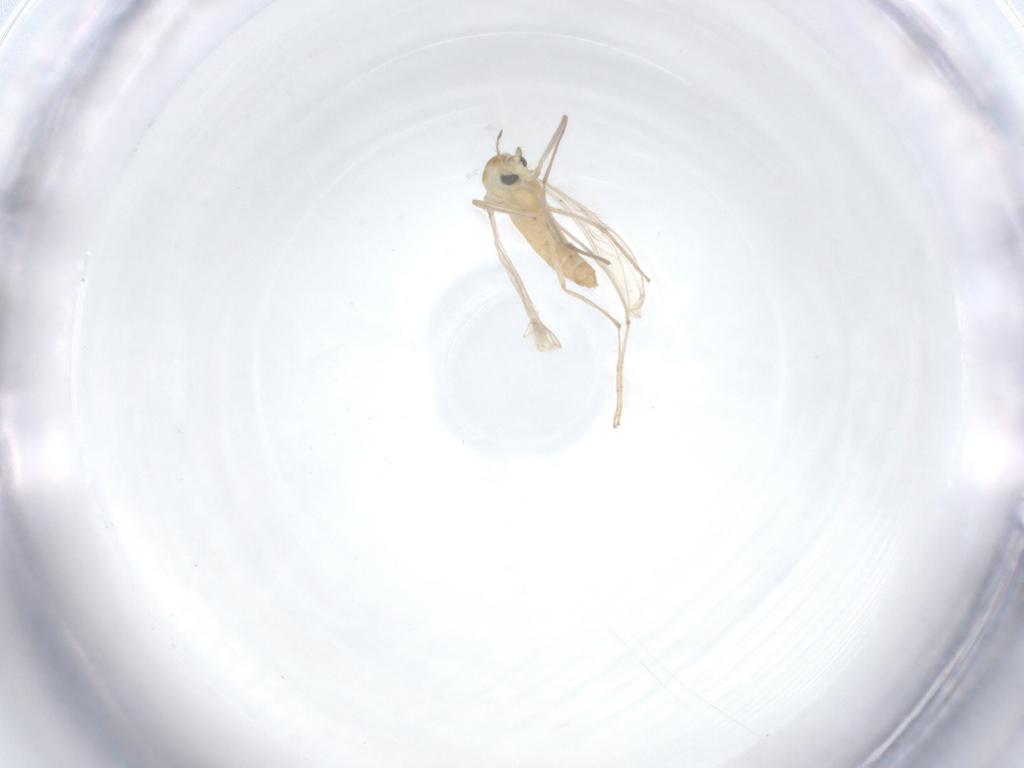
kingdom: Animalia
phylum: Arthropoda
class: Insecta
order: Diptera
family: Chironomidae
